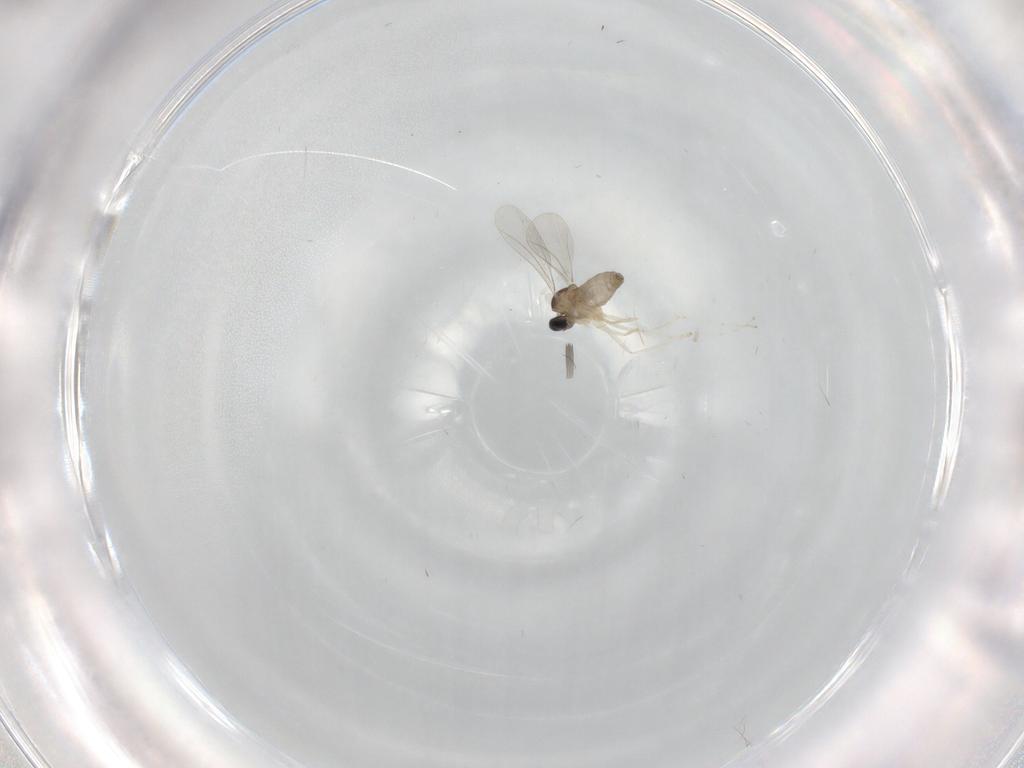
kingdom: Animalia
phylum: Arthropoda
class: Insecta
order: Diptera
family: Cecidomyiidae
